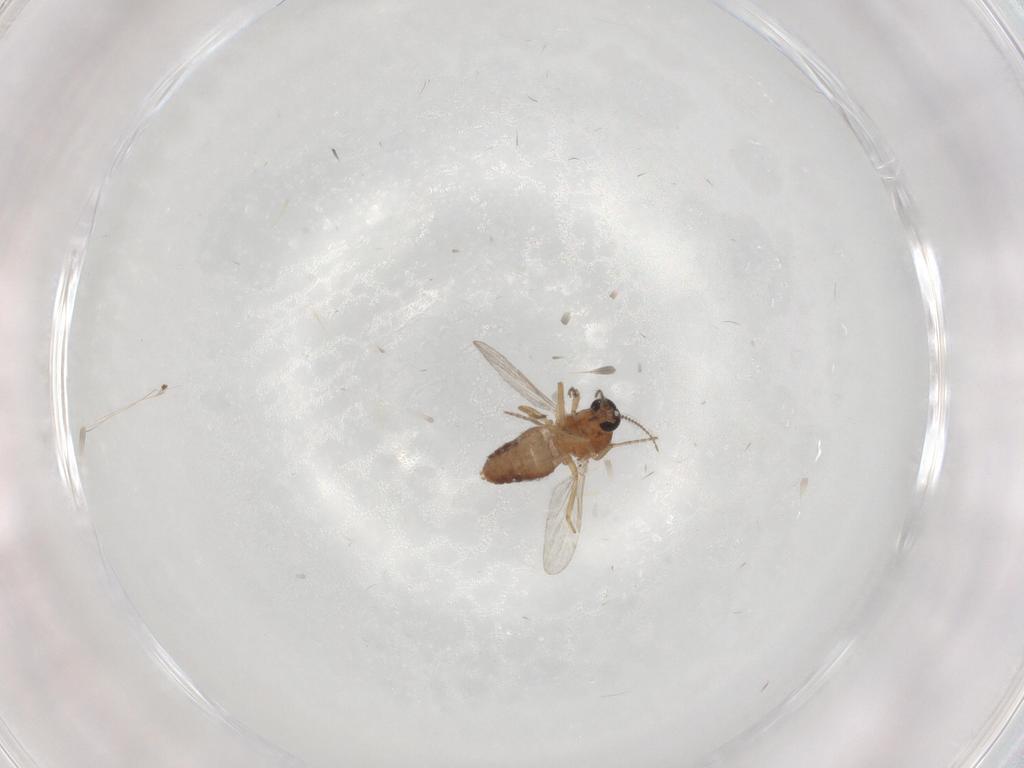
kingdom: Animalia
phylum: Arthropoda
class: Insecta
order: Diptera
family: Ceratopogonidae
